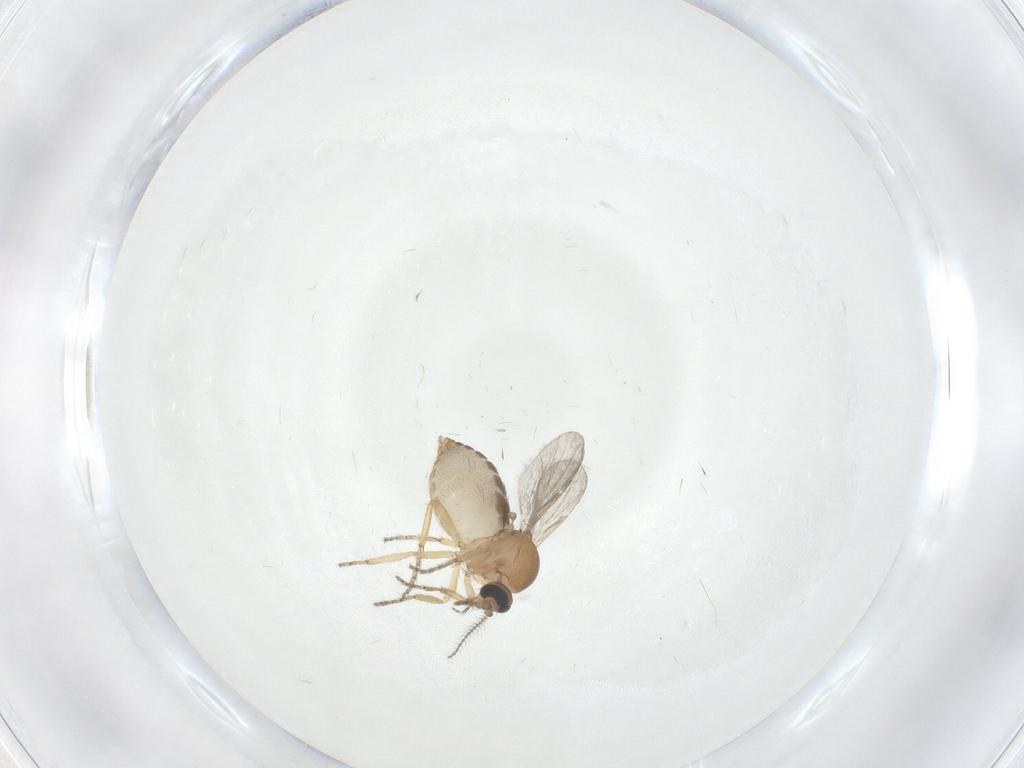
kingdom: Animalia
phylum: Arthropoda
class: Insecta
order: Diptera
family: Ceratopogonidae
